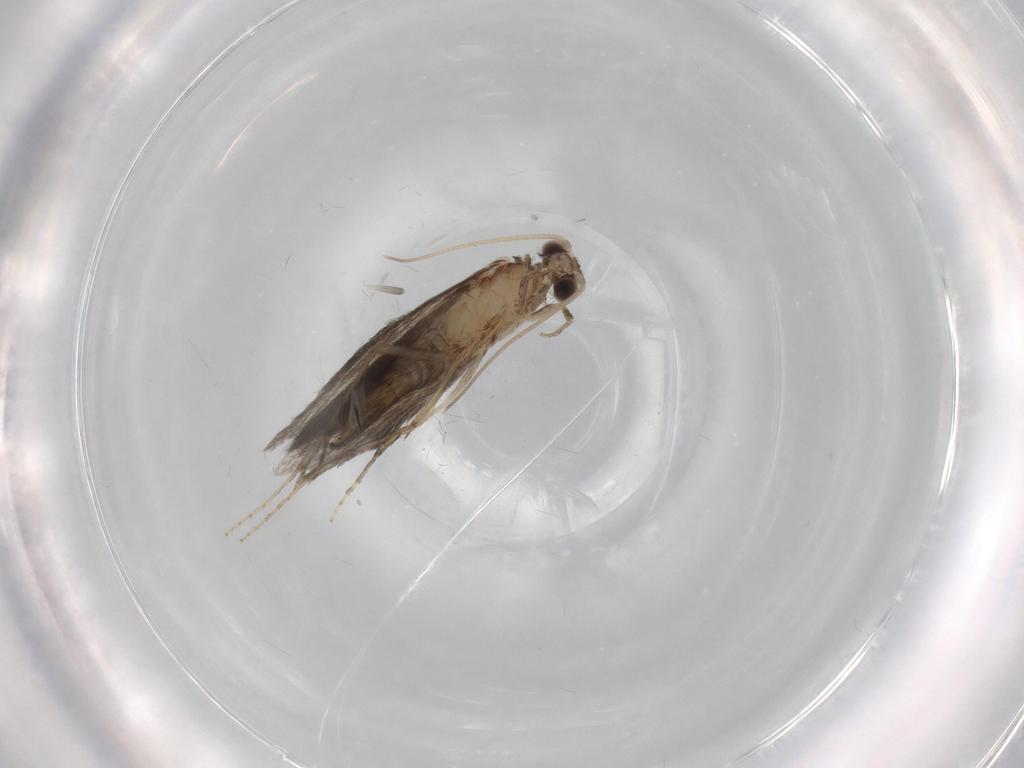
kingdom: Animalia
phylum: Arthropoda
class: Insecta
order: Trichoptera
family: Hydroptilidae
